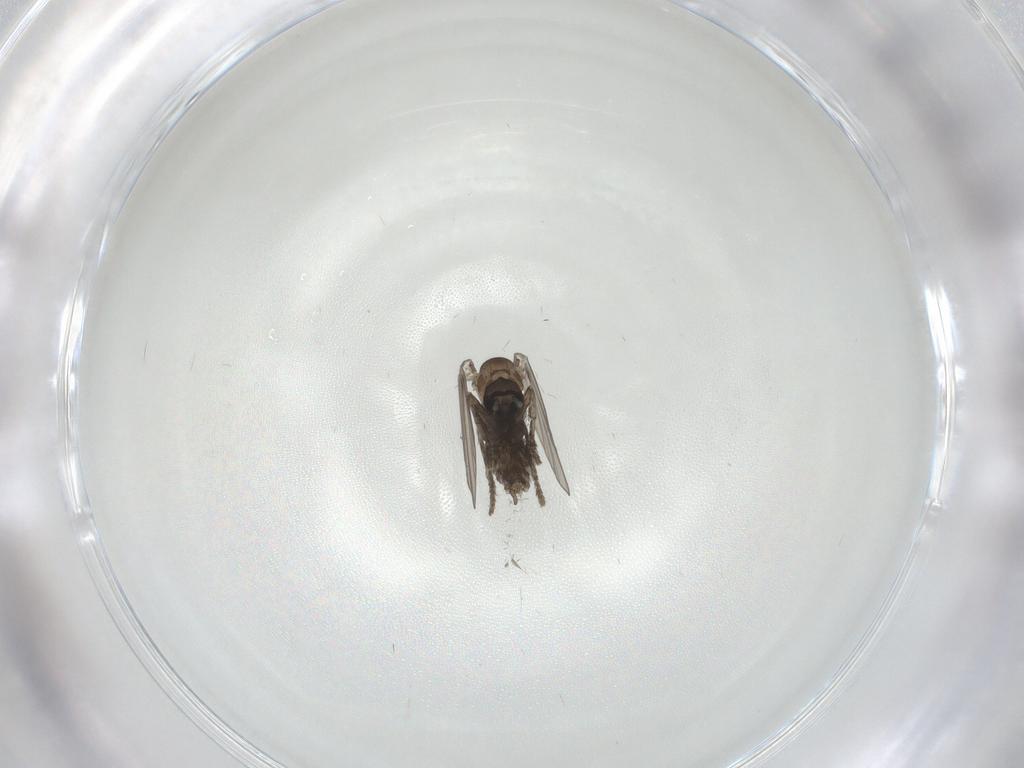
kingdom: Animalia
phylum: Arthropoda
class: Insecta
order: Diptera
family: Psychodidae
